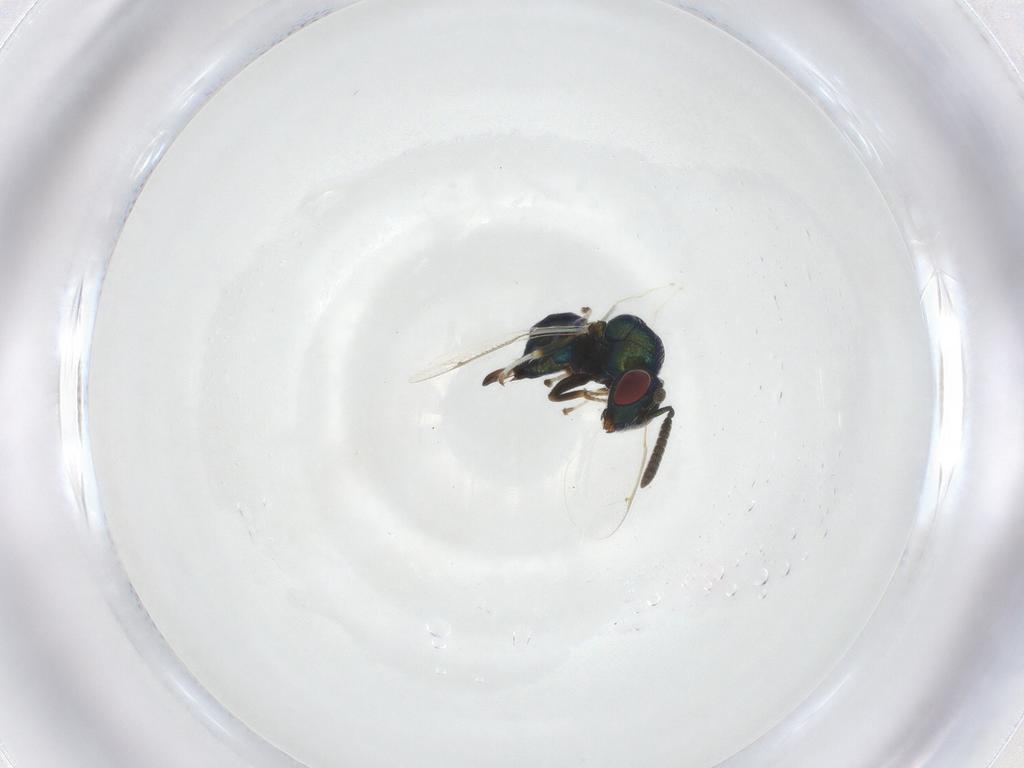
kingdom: Animalia
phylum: Arthropoda
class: Insecta
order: Hymenoptera
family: Torymidae
